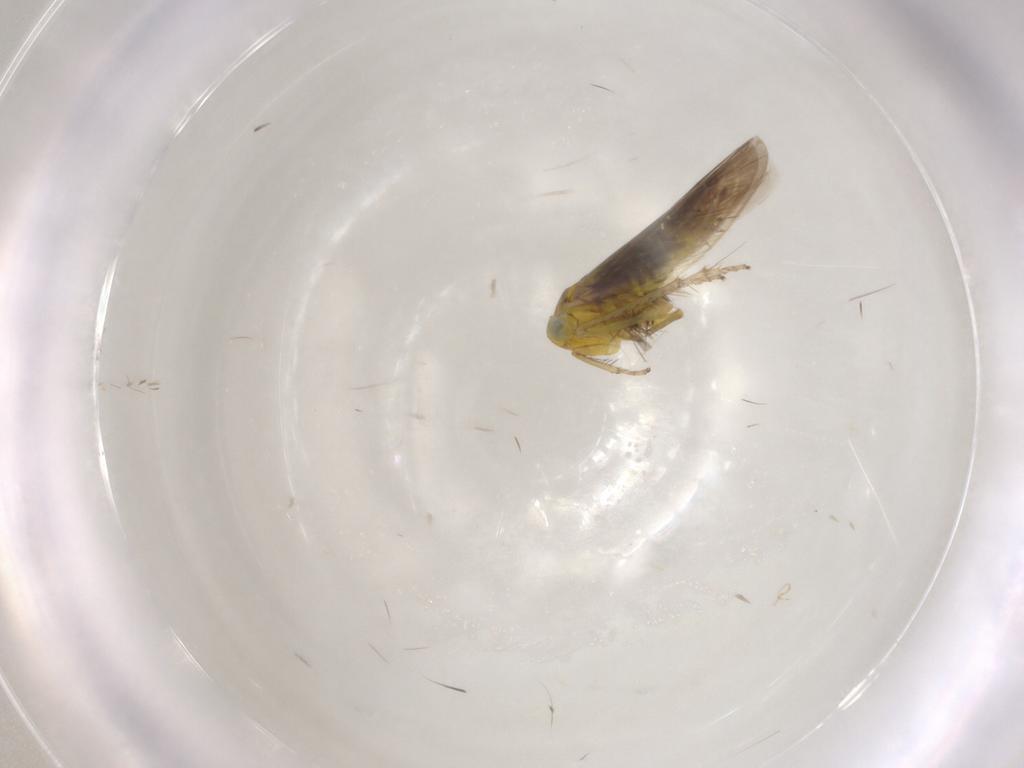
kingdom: Animalia
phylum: Arthropoda
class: Insecta
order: Hemiptera
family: Cicadellidae
